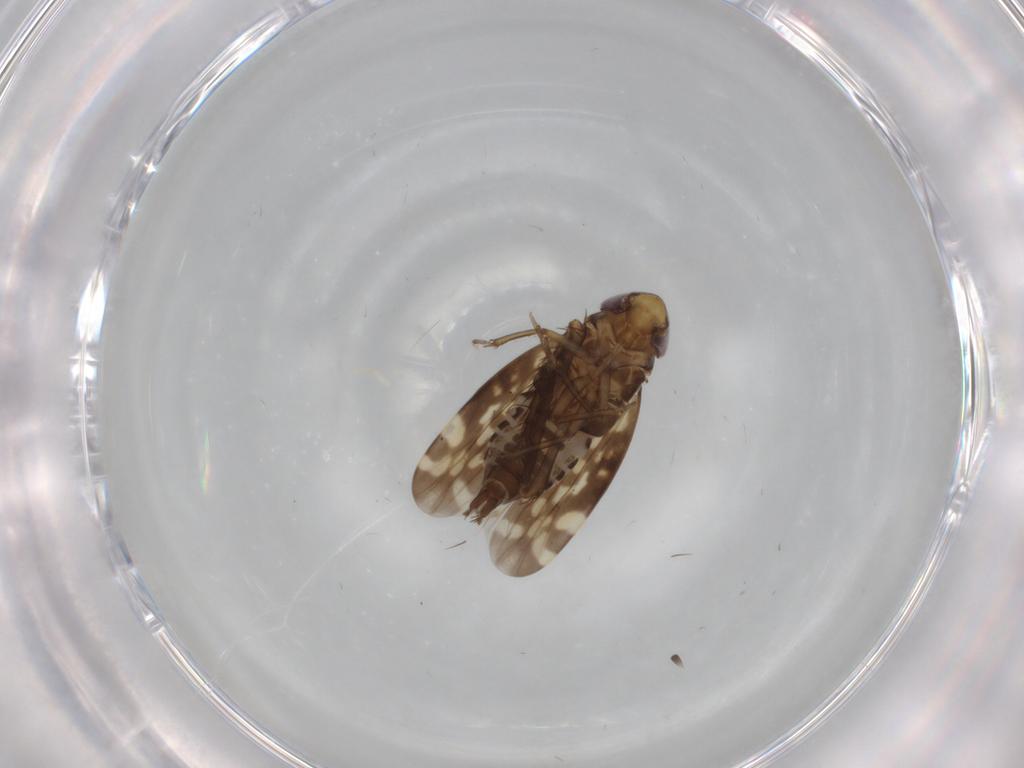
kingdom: Animalia
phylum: Arthropoda
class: Insecta
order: Hemiptera
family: Cicadellidae
